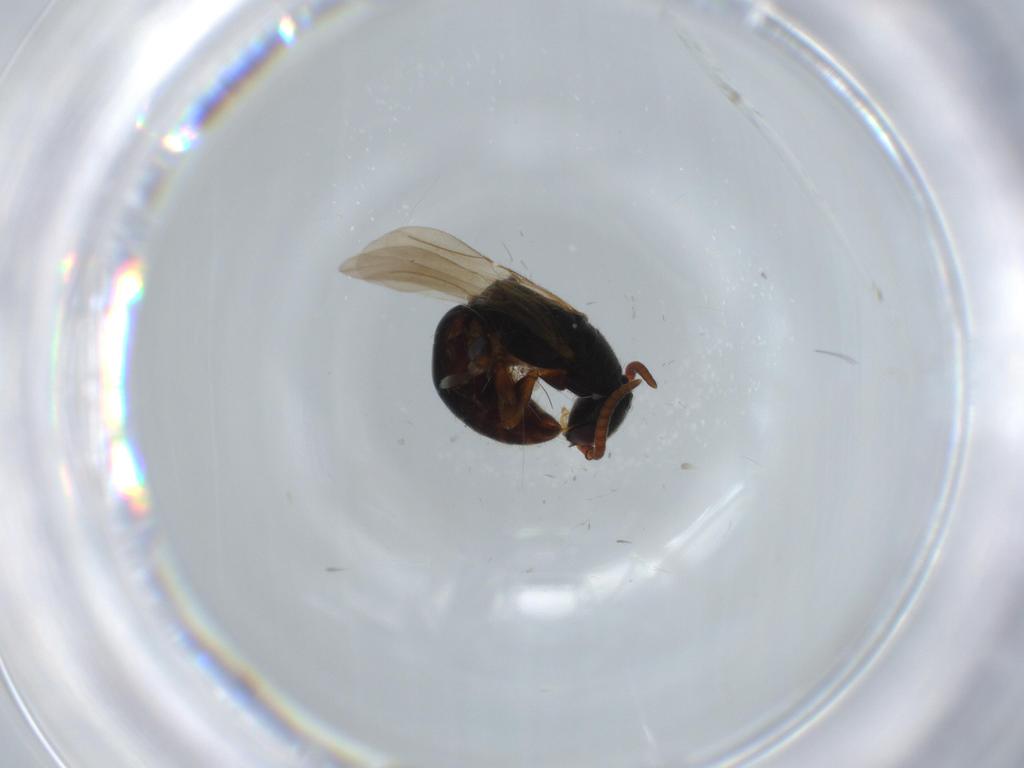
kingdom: Animalia
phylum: Arthropoda
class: Insecta
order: Hymenoptera
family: Bethylidae
